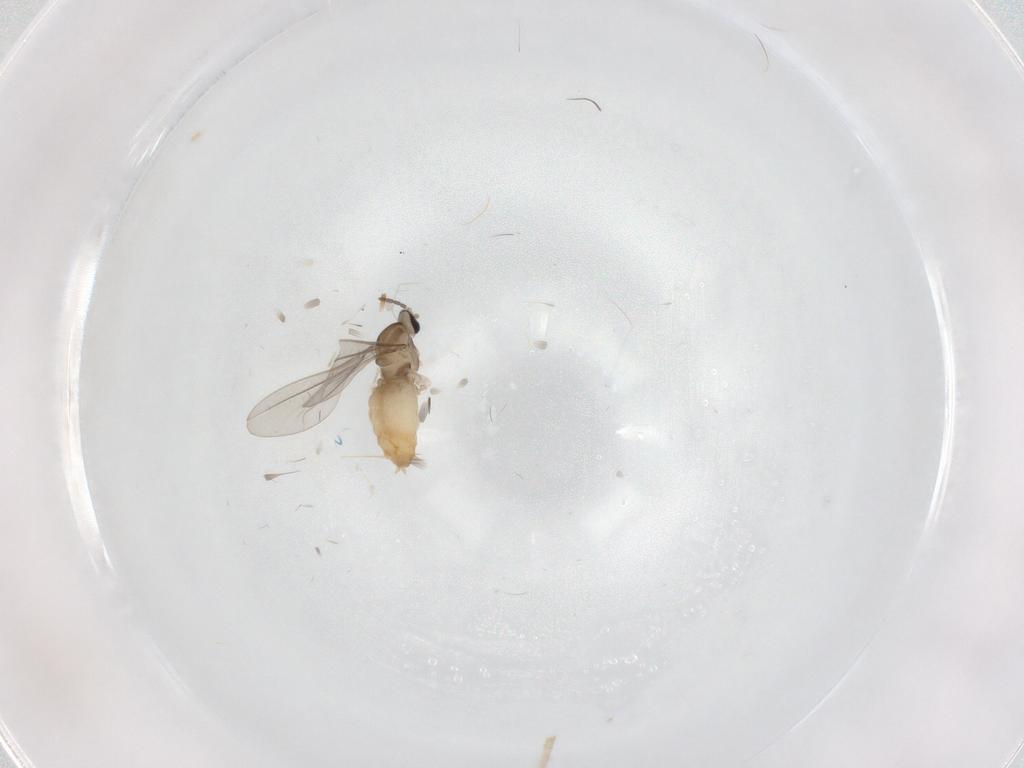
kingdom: Animalia
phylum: Arthropoda
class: Insecta
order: Diptera
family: Cecidomyiidae
